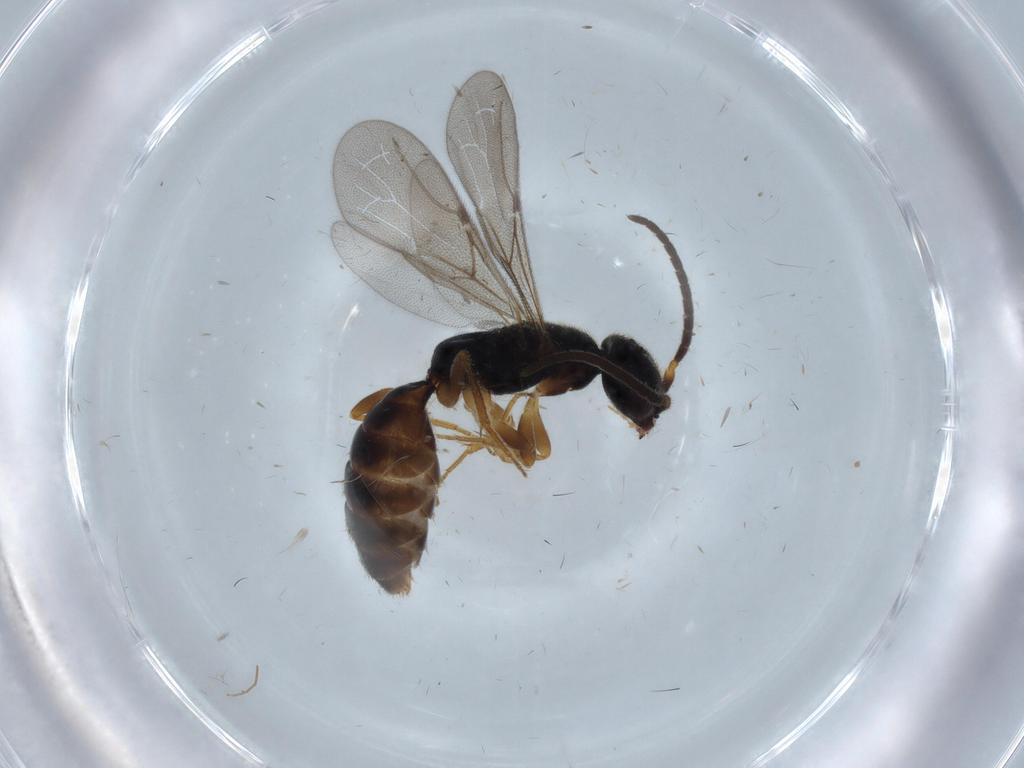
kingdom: Animalia
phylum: Arthropoda
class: Insecta
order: Hymenoptera
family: Bethylidae
